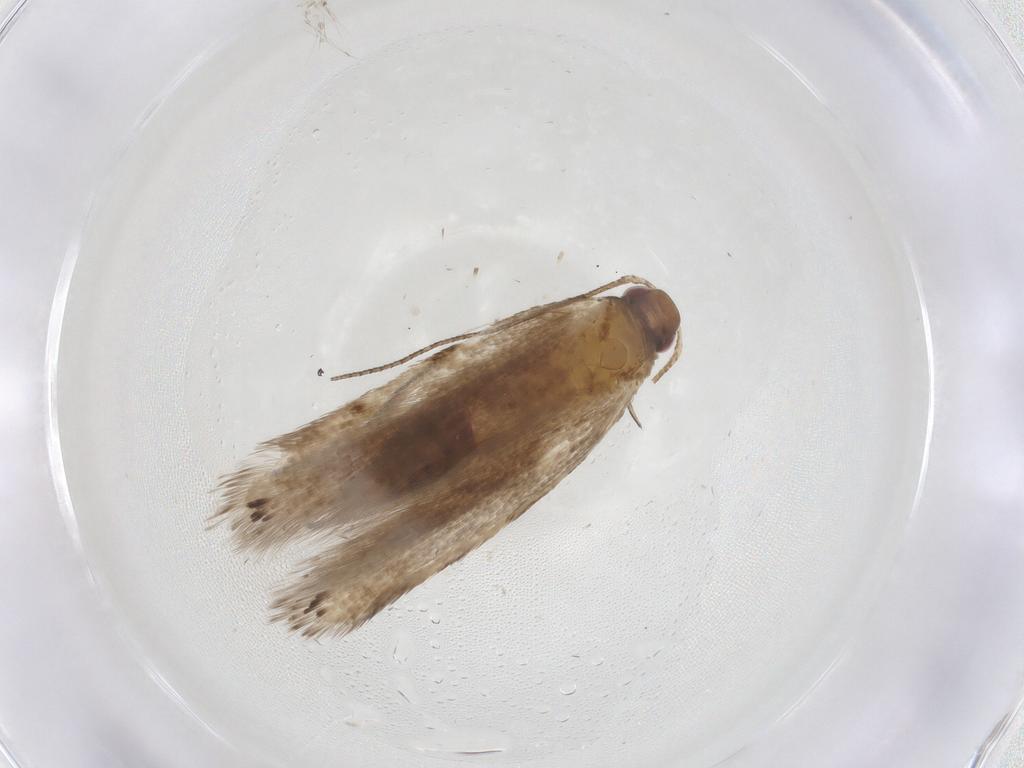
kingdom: Animalia
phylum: Arthropoda
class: Insecta
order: Lepidoptera
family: Gelechiidae
